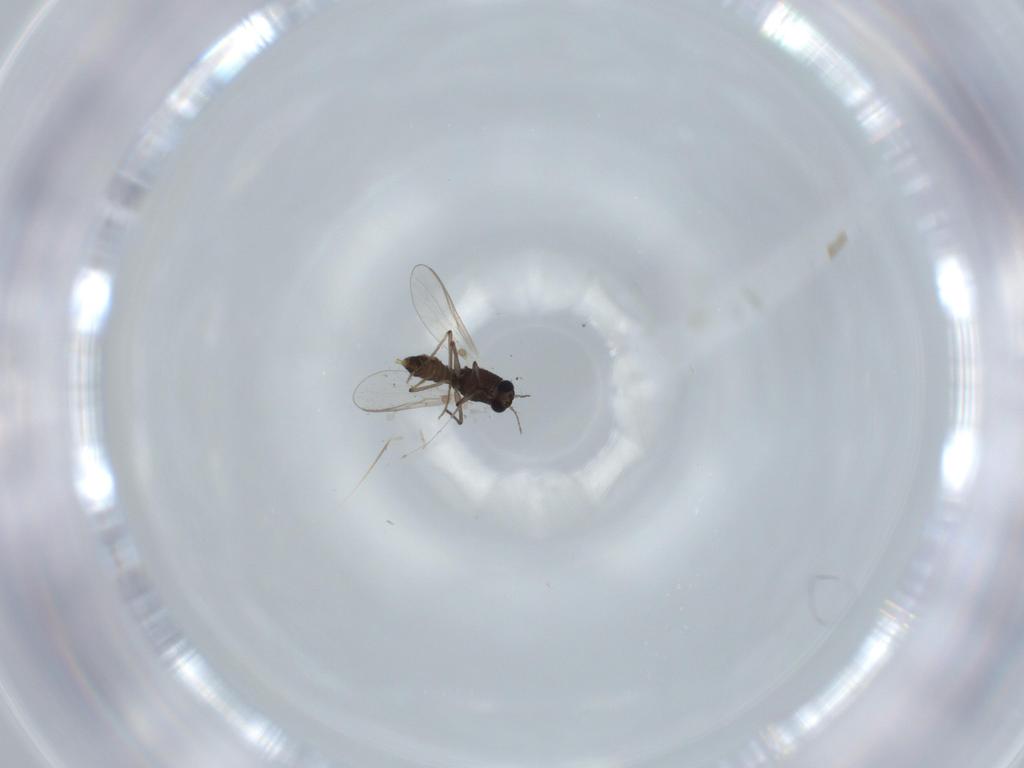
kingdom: Animalia
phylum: Arthropoda
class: Insecta
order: Diptera
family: Chironomidae
